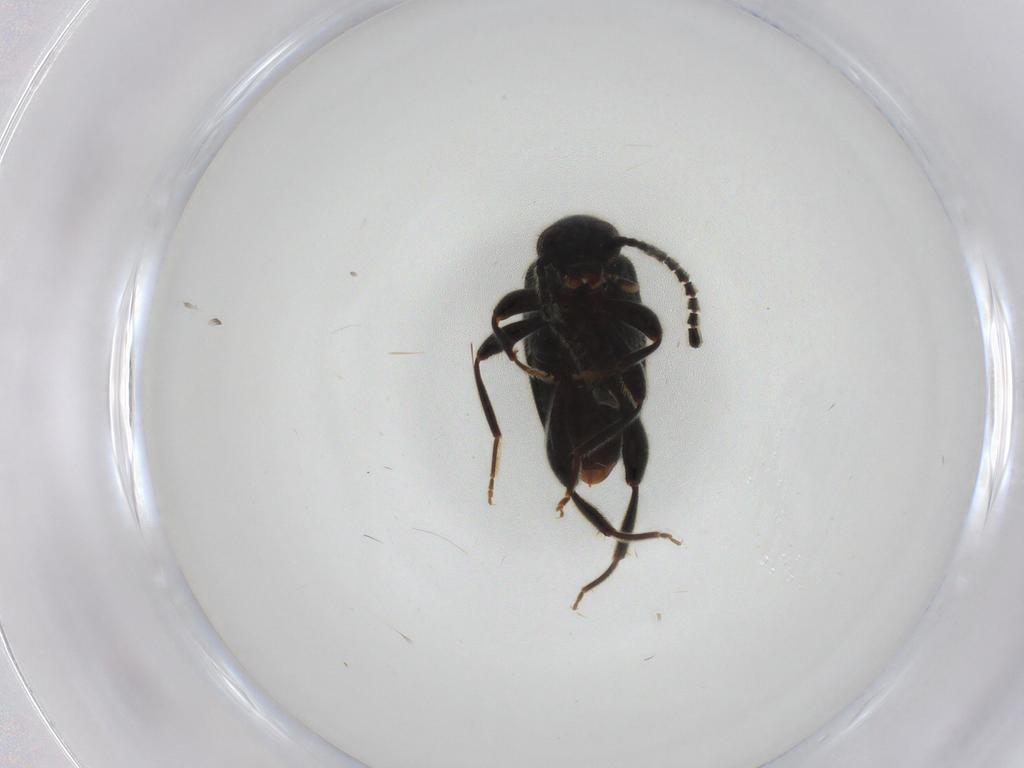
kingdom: Animalia
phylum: Arthropoda
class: Insecta
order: Coleoptera
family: Aderidae
